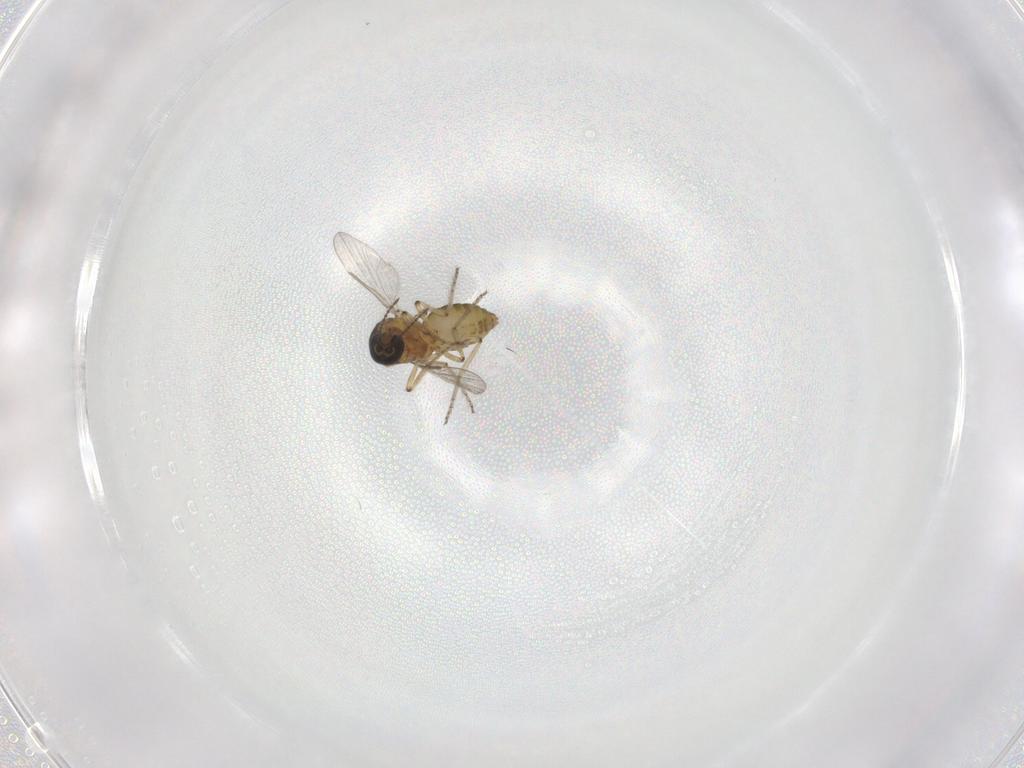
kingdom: Animalia
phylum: Arthropoda
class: Insecta
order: Diptera
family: Ceratopogonidae
